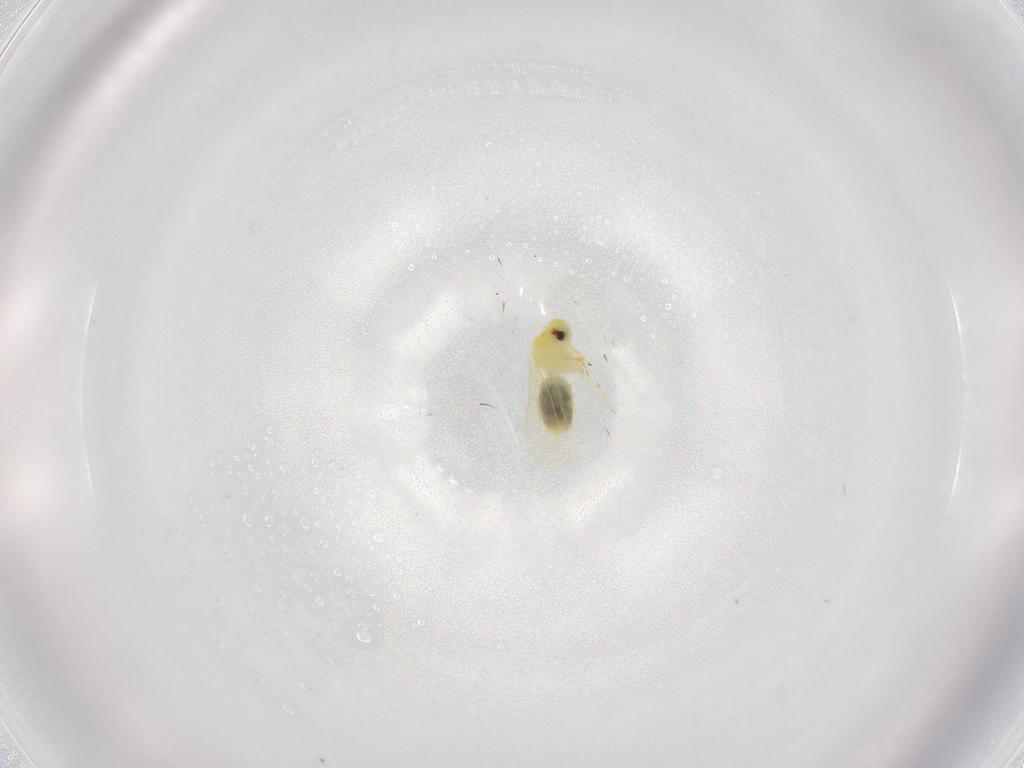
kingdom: Animalia
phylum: Arthropoda
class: Insecta
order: Hemiptera
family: Aleyrodidae
